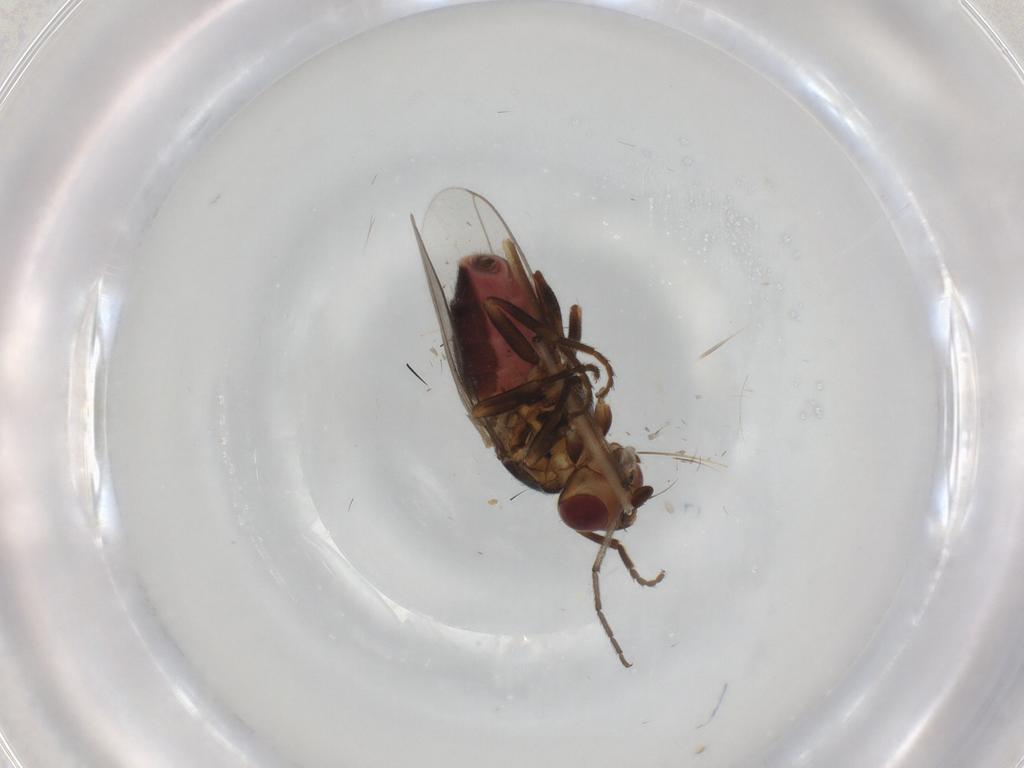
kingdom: Animalia
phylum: Arthropoda
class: Insecta
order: Diptera
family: Chloropidae
